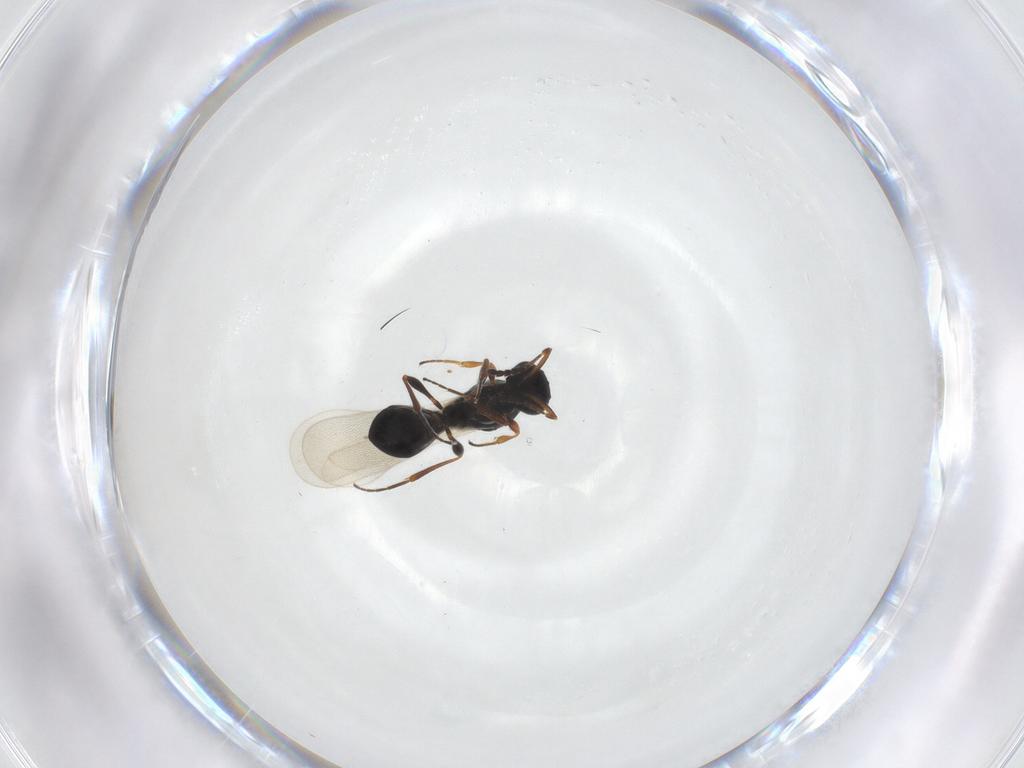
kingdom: Animalia
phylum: Arthropoda
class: Insecta
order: Hymenoptera
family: Platygastridae
